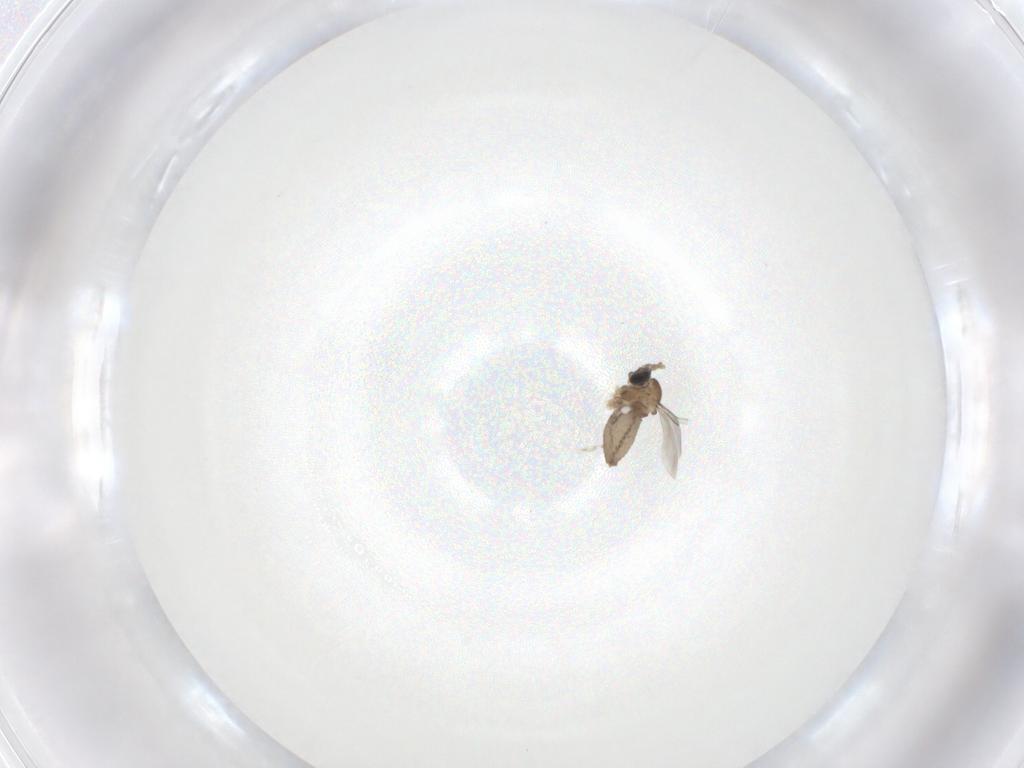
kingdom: Animalia
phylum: Arthropoda
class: Insecta
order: Diptera
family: Cecidomyiidae
